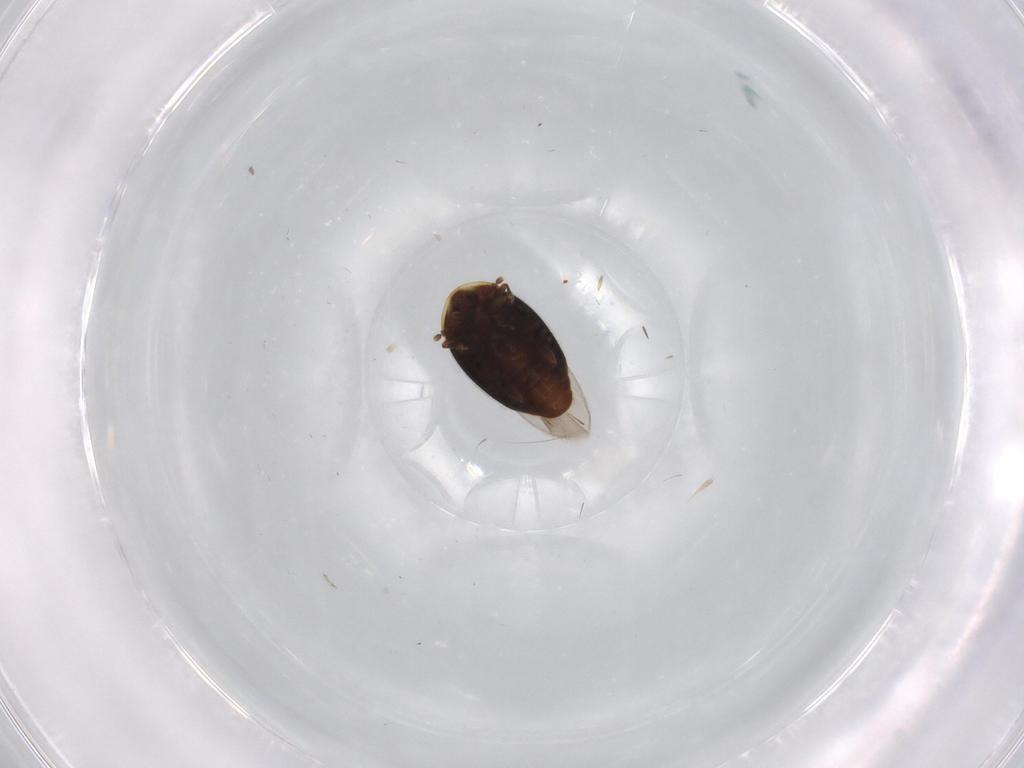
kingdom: Animalia
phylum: Arthropoda
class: Insecta
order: Coleoptera
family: Corylophidae
